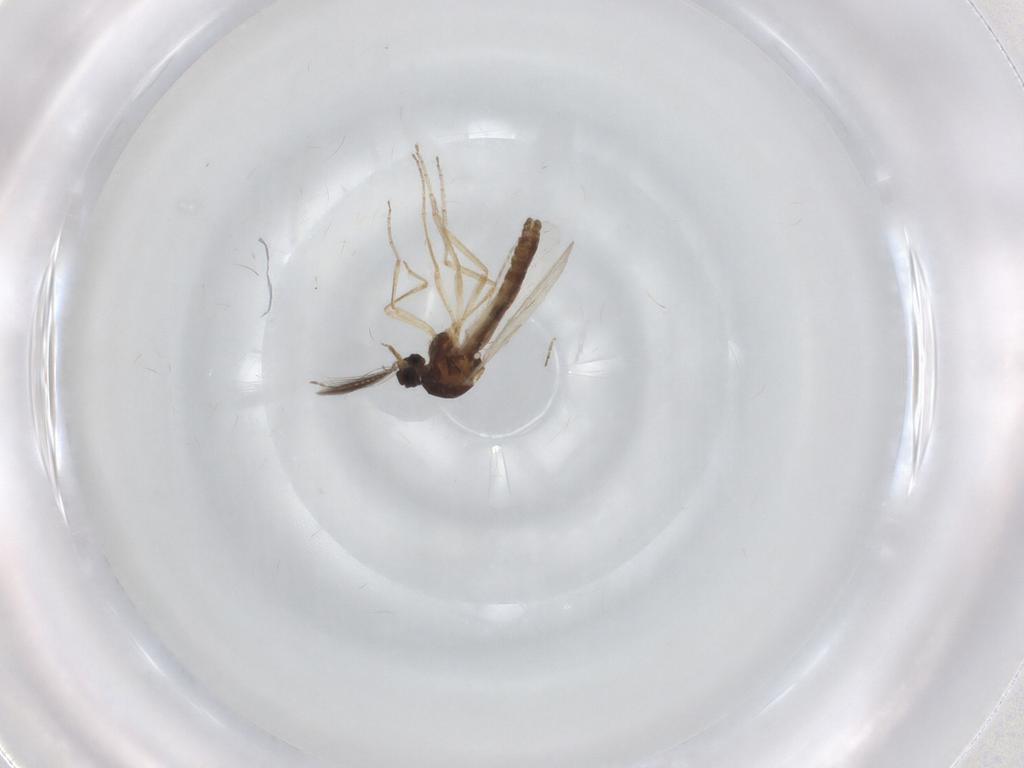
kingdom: Animalia
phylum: Arthropoda
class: Insecta
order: Diptera
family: Ceratopogonidae
